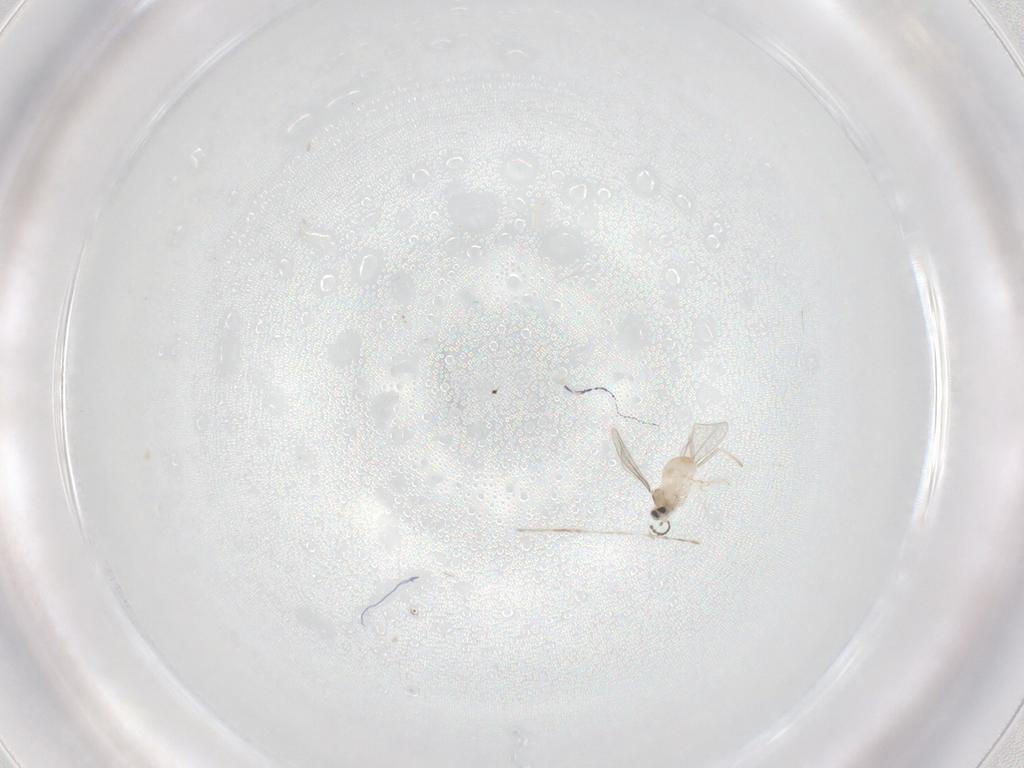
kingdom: Animalia
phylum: Arthropoda
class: Insecta
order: Diptera
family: Cecidomyiidae
